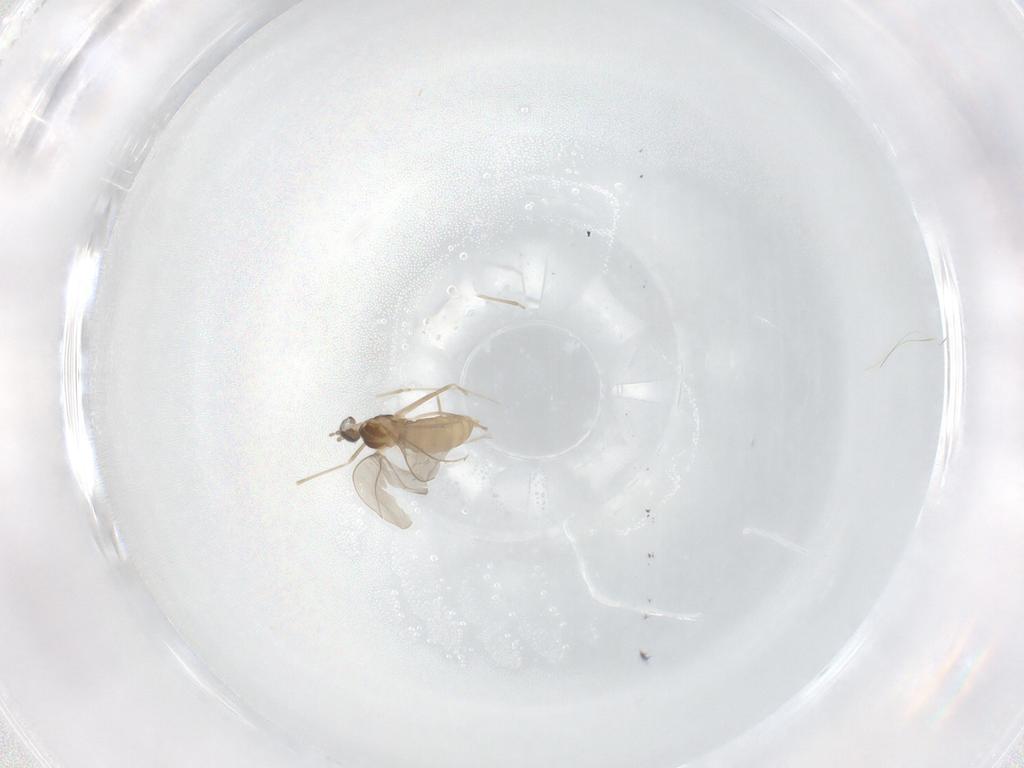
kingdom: Animalia
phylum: Arthropoda
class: Insecta
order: Diptera
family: Cecidomyiidae
